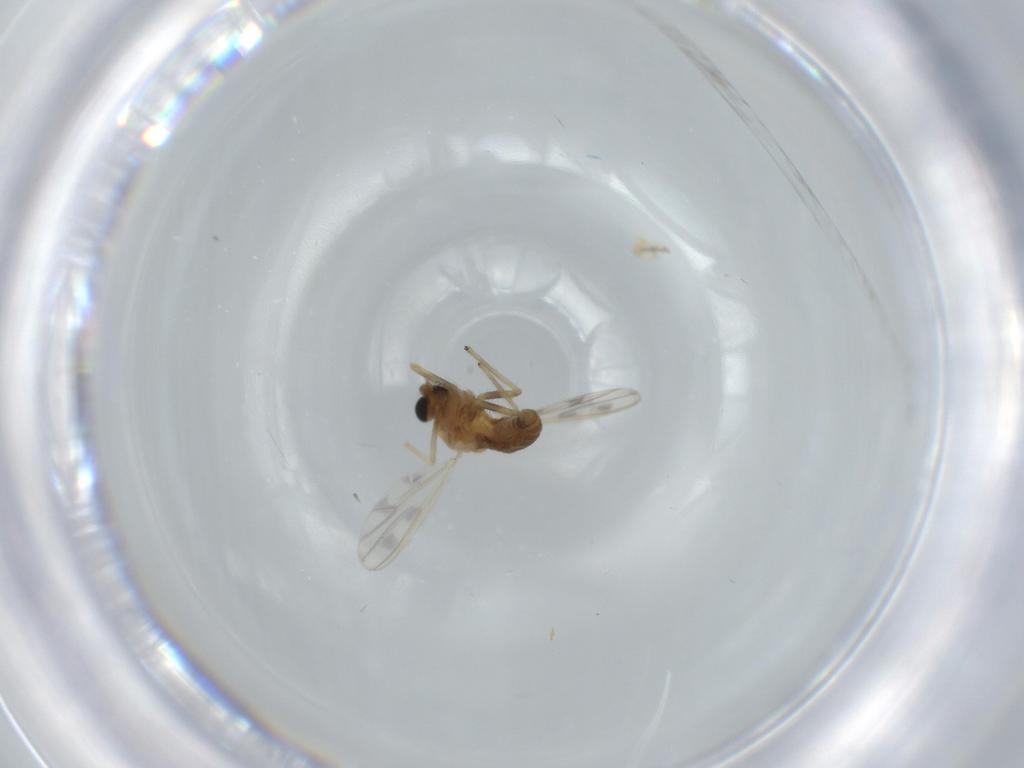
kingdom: Animalia
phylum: Arthropoda
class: Insecta
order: Diptera
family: Chironomidae
